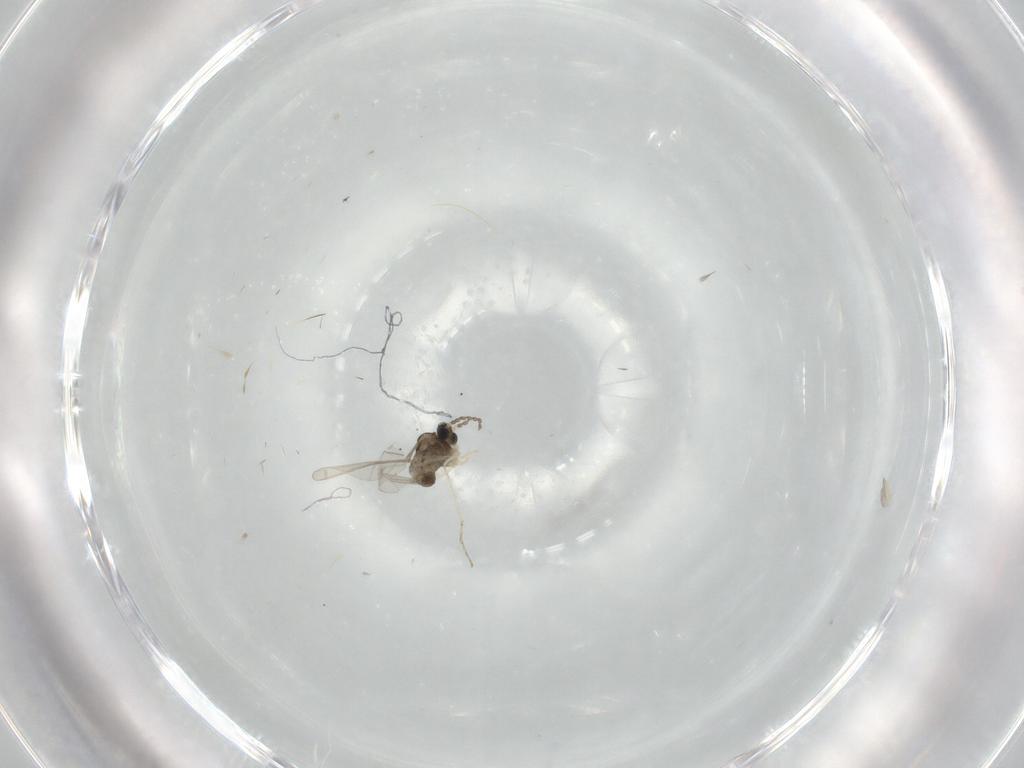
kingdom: Animalia
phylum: Arthropoda
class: Insecta
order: Diptera
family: Cecidomyiidae
